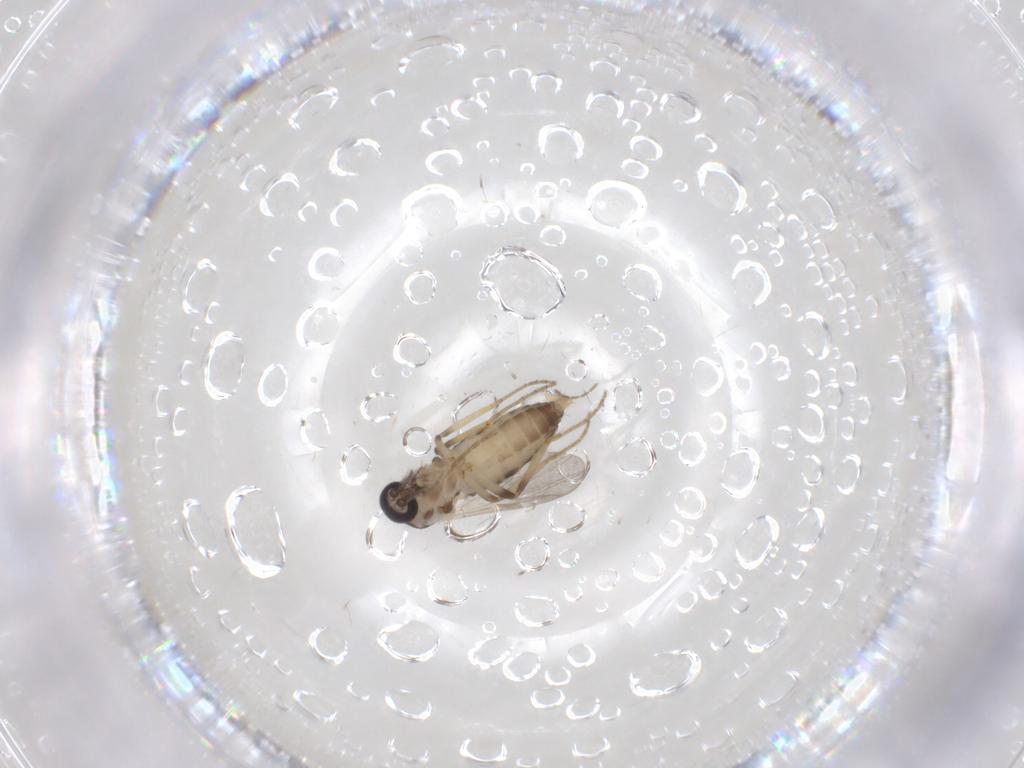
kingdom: Animalia
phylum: Arthropoda
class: Insecta
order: Diptera
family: Ceratopogonidae
